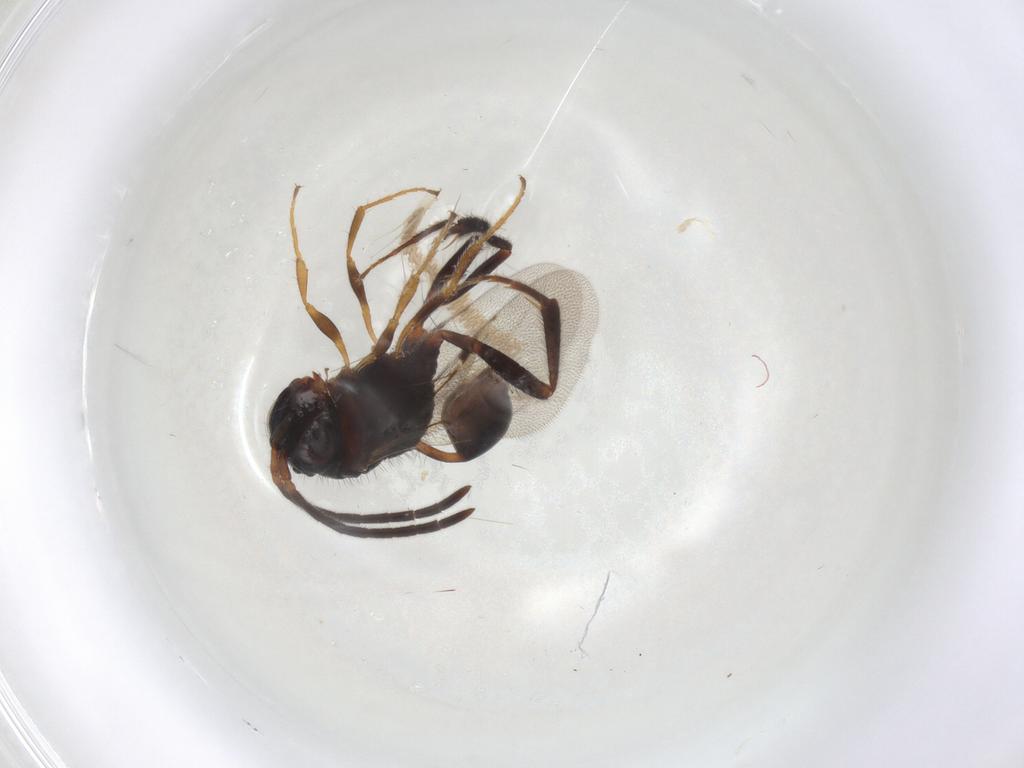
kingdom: Animalia
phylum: Arthropoda
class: Insecta
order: Hymenoptera
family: Evaniidae
